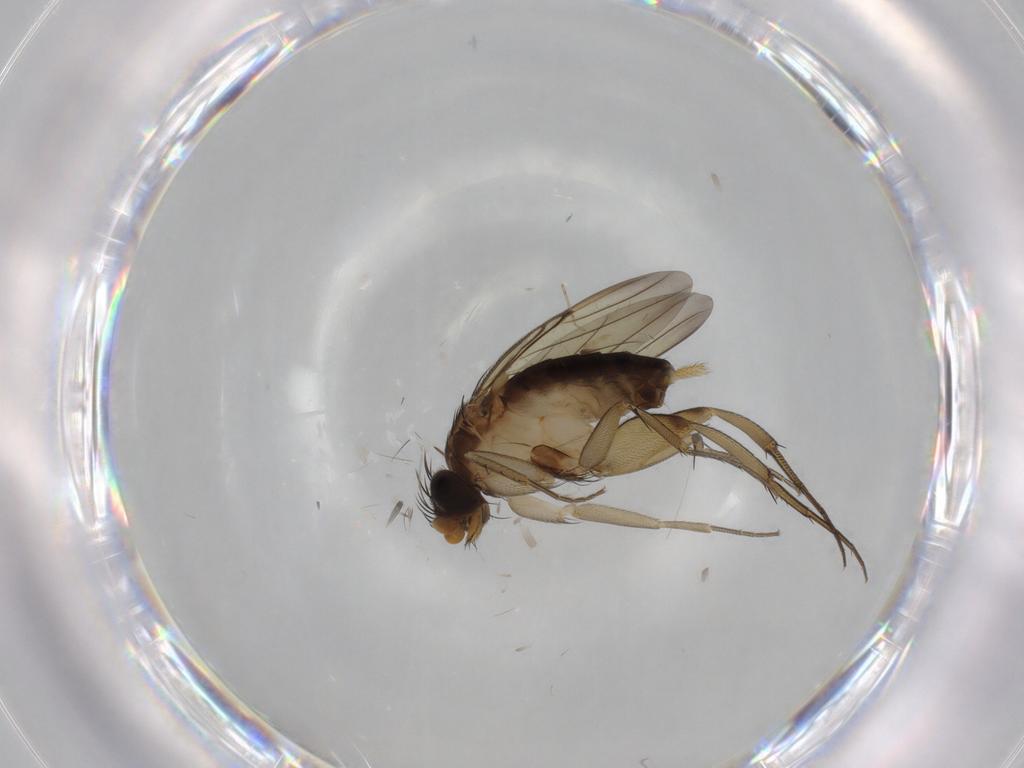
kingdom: Animalia
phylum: Arthropoda
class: Insecta
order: Diptera
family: Phoridae
